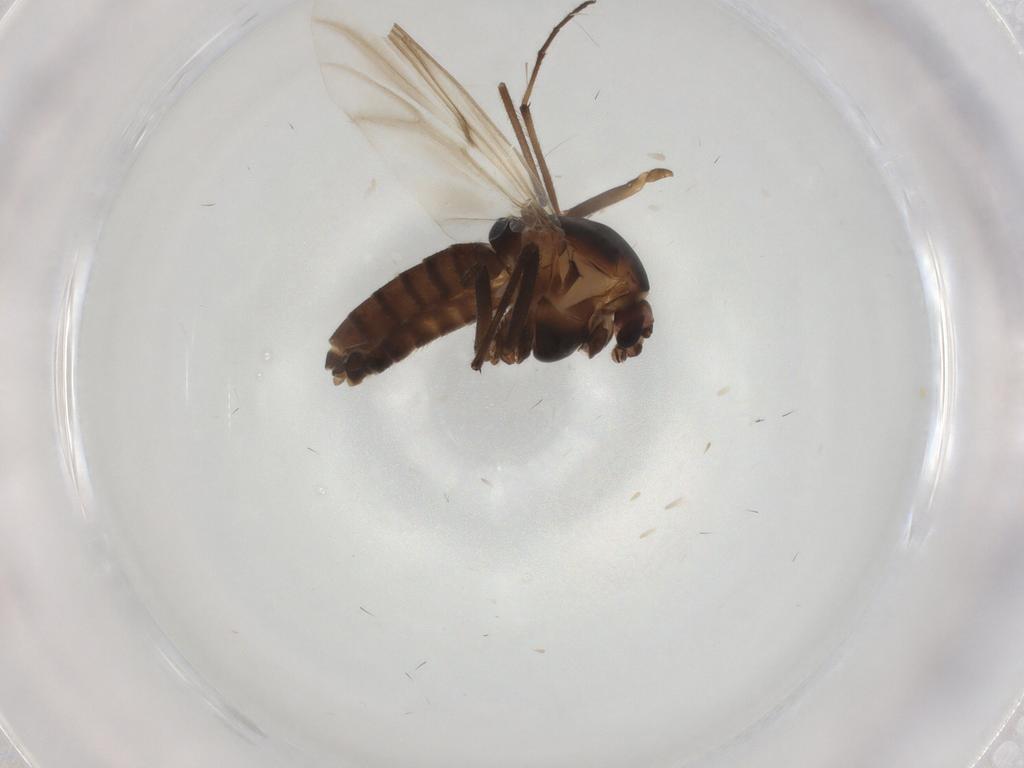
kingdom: Animalia
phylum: Arthropoda
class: Insecta
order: Diptera
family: Chironomidae
